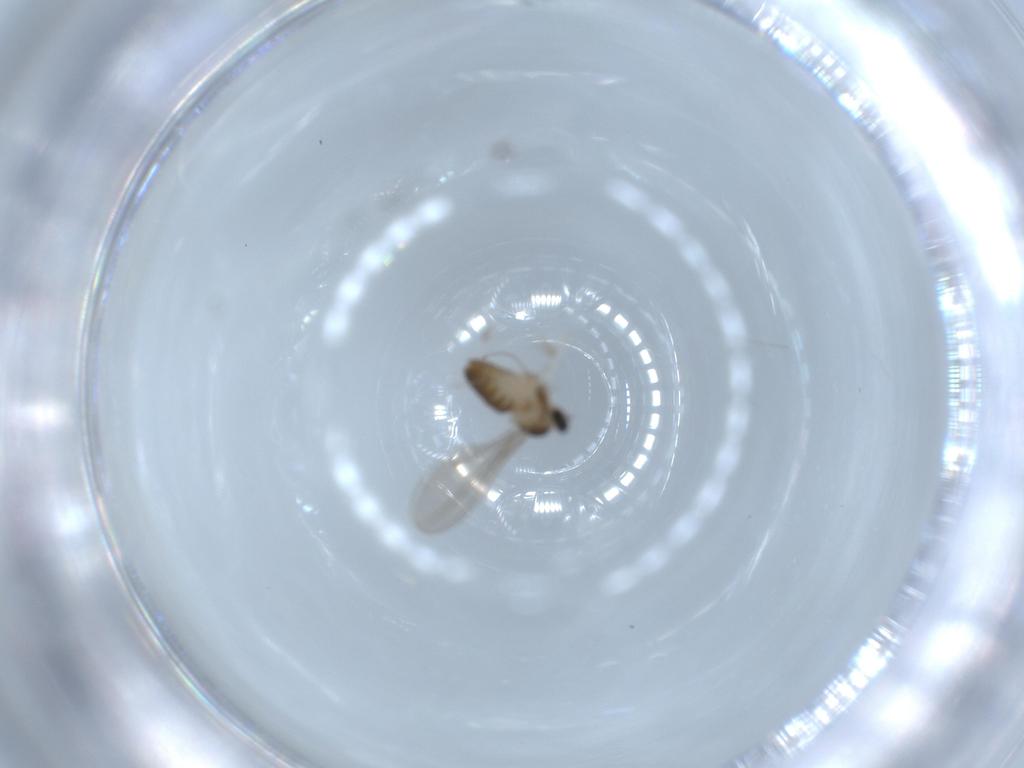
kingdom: Animalia
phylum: Arthropoda
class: Insecta
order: Diptera
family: Cecidomyiidae
